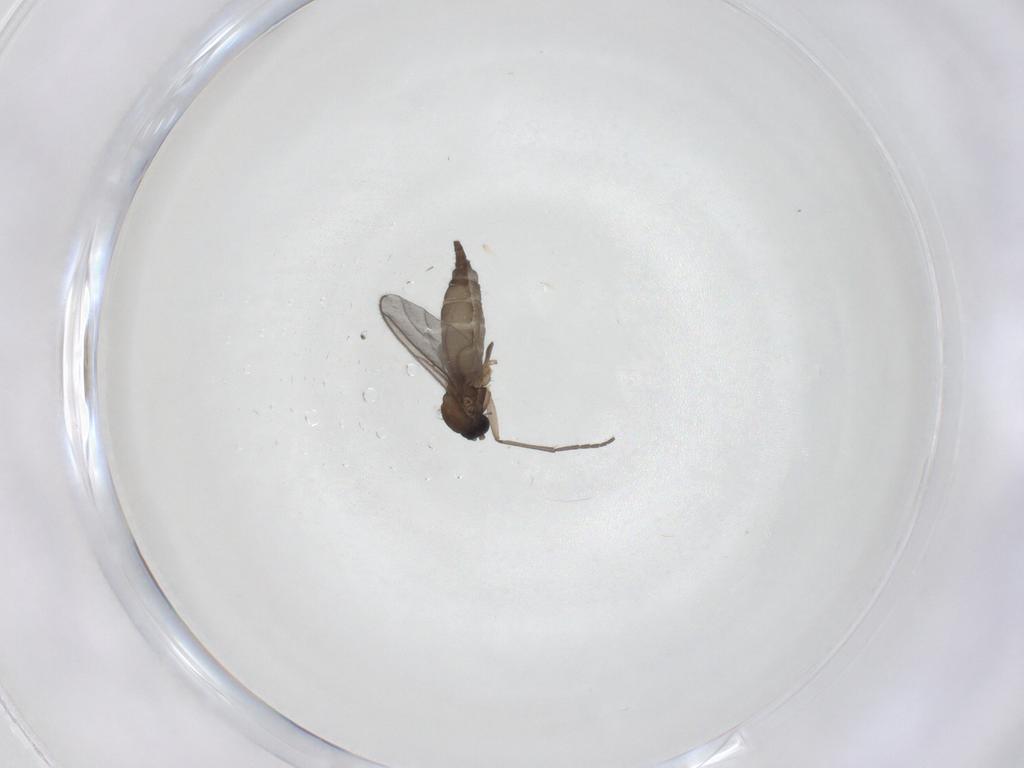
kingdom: Animalia
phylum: Arthropoda
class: Insecta
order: Diptera
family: Sciaridae
